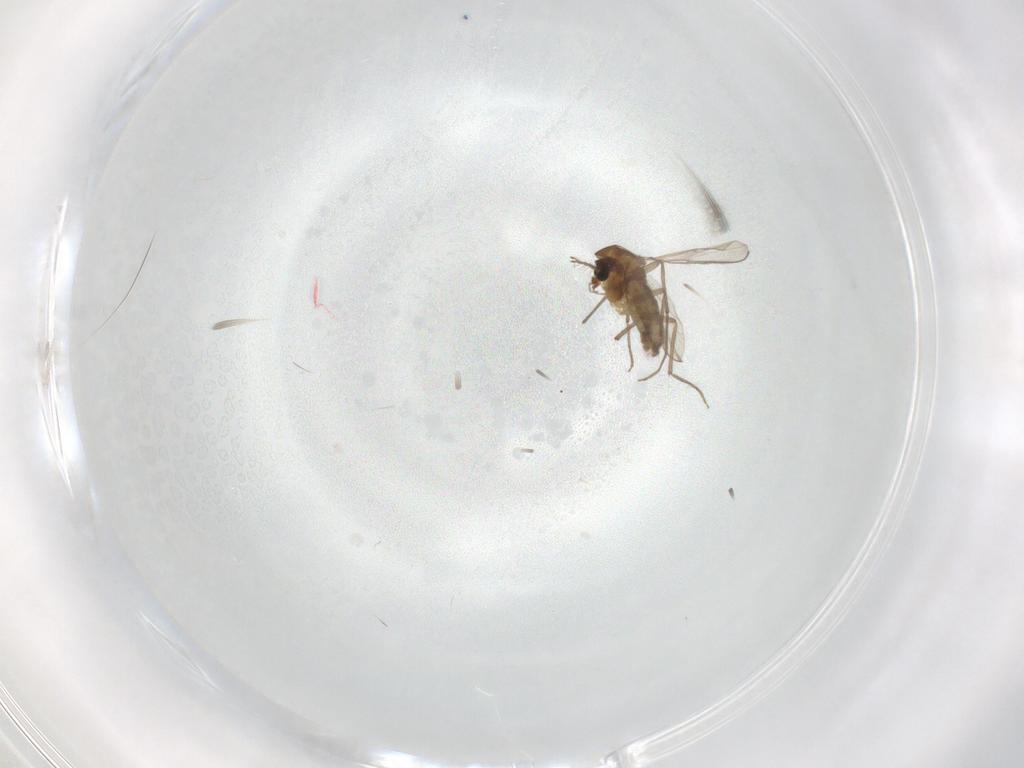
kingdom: Animalia
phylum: Arthropoda
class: Insecta
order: Diptera
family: Chironomidae
